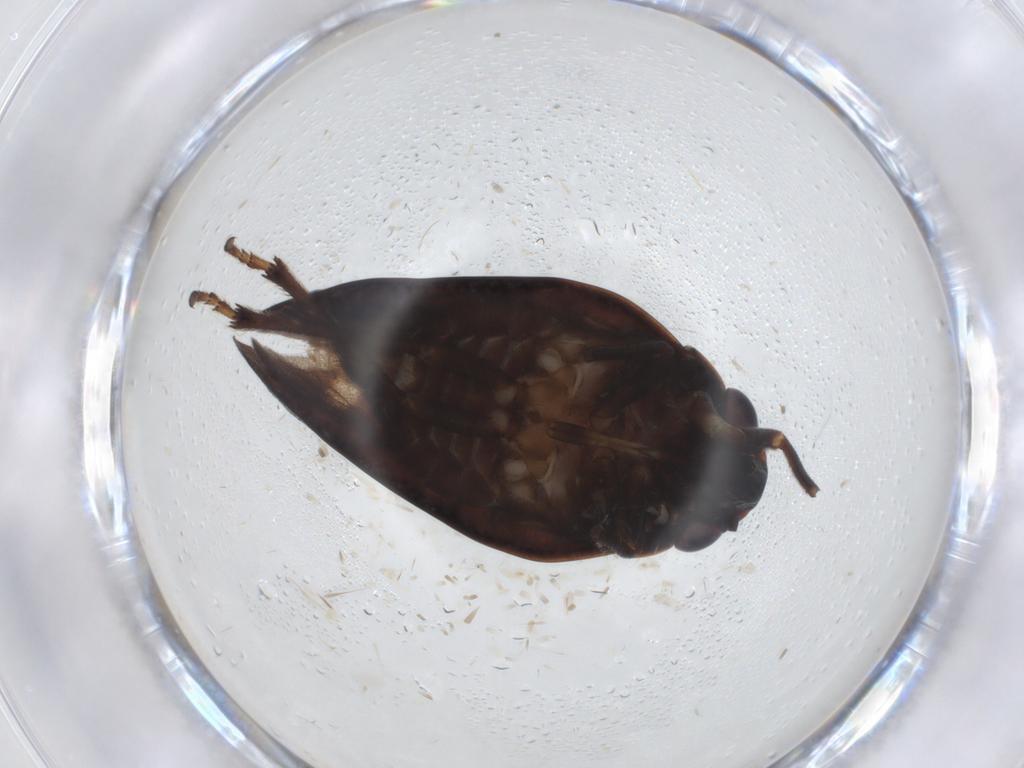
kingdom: Animalia
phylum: Arthropoda
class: Insecta
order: Hemiptera
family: Cercopidae
